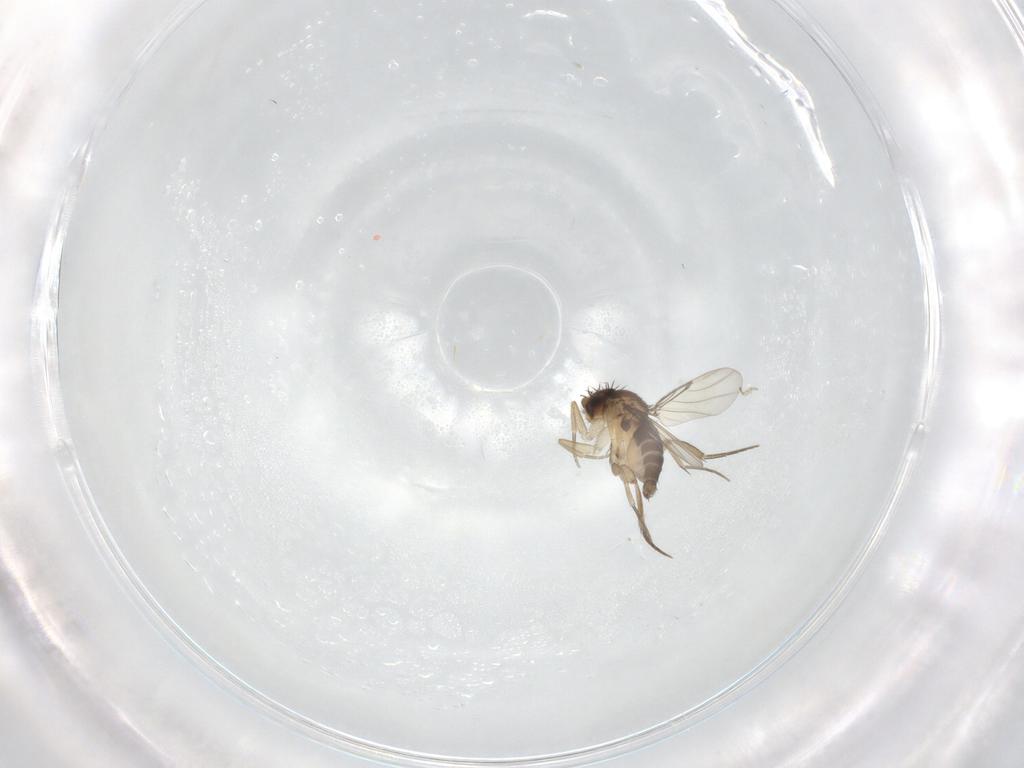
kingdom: Animalia
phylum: Arthropoda
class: Insecta
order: Diptera
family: Phoridae
